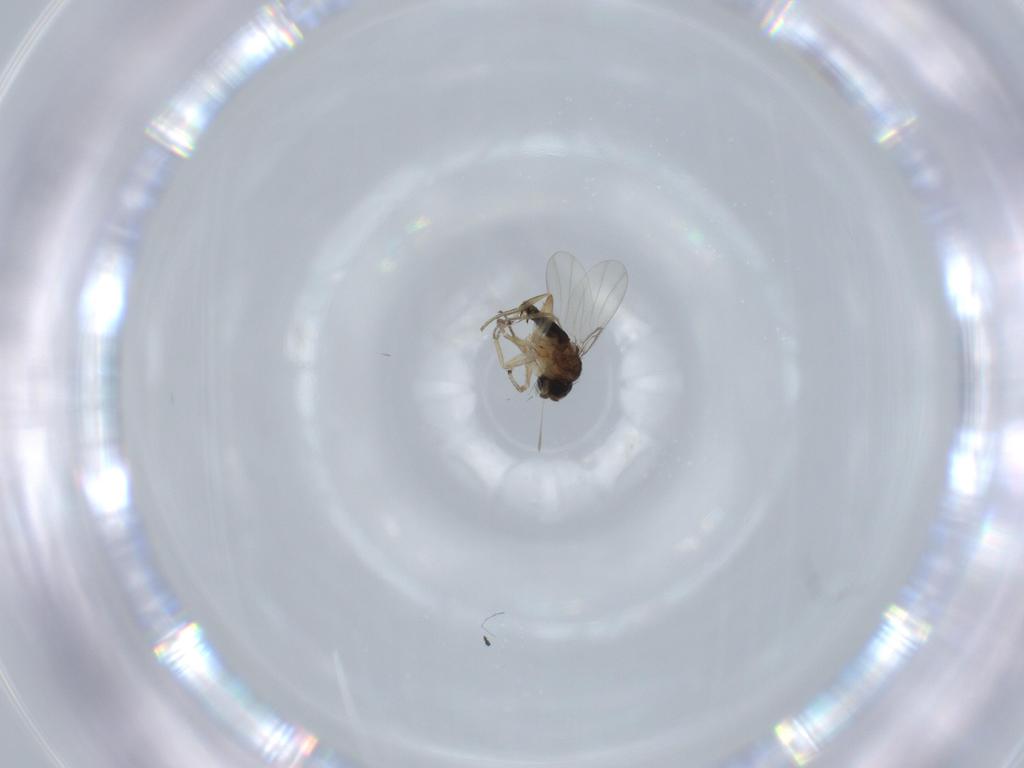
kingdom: Animalia
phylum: Arthropoda
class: Insecta
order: Diptera
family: Phoridae
